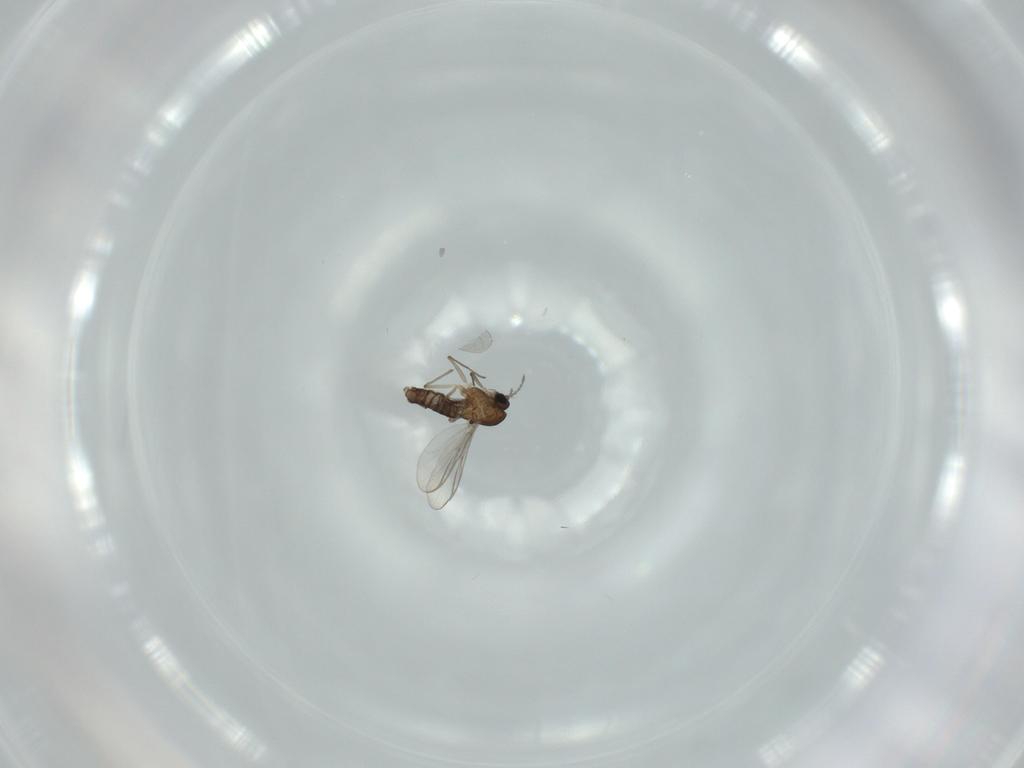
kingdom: Animalia
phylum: Arthropoda
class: Insecta
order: Diptera
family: Chironomidae
